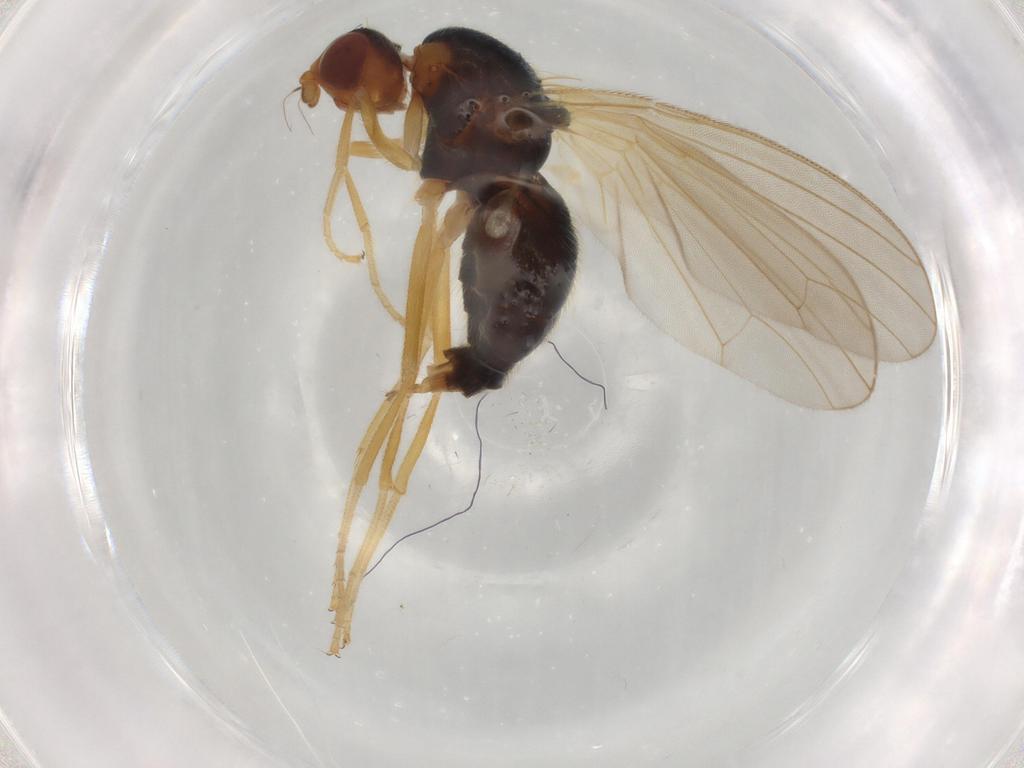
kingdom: Animalia
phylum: Arthropoda
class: Insecta
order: Diptera
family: Psilidae
